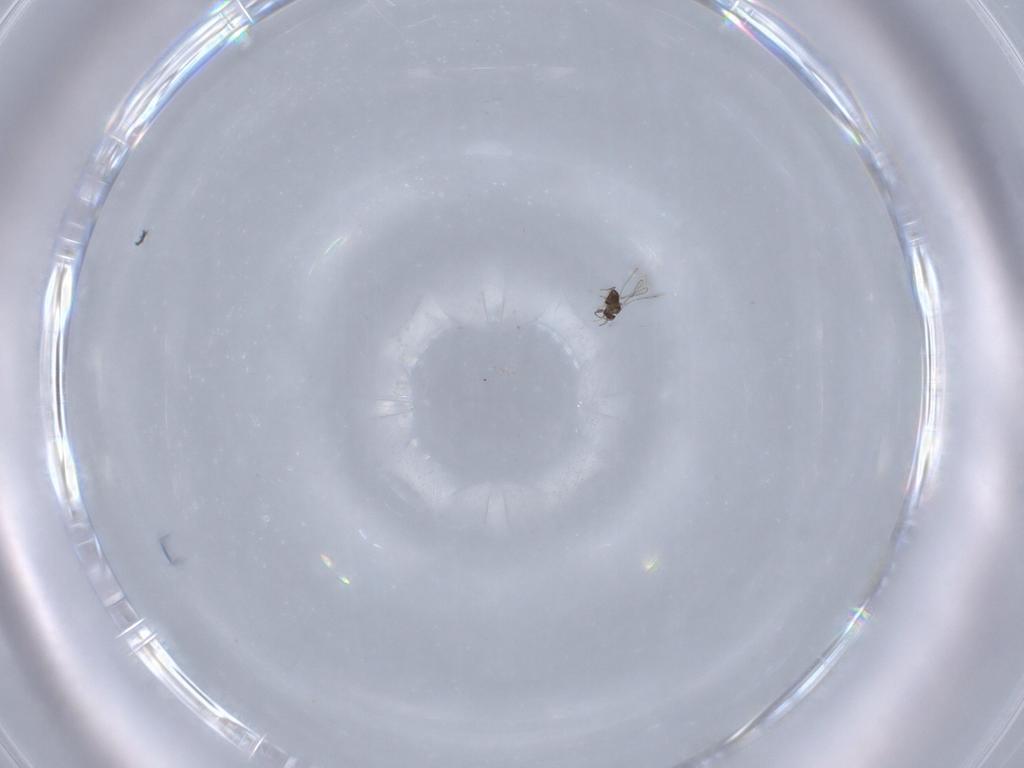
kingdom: Animalia
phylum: Arthropoda
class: Insecta
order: Hymenoptera
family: Mymaridae
